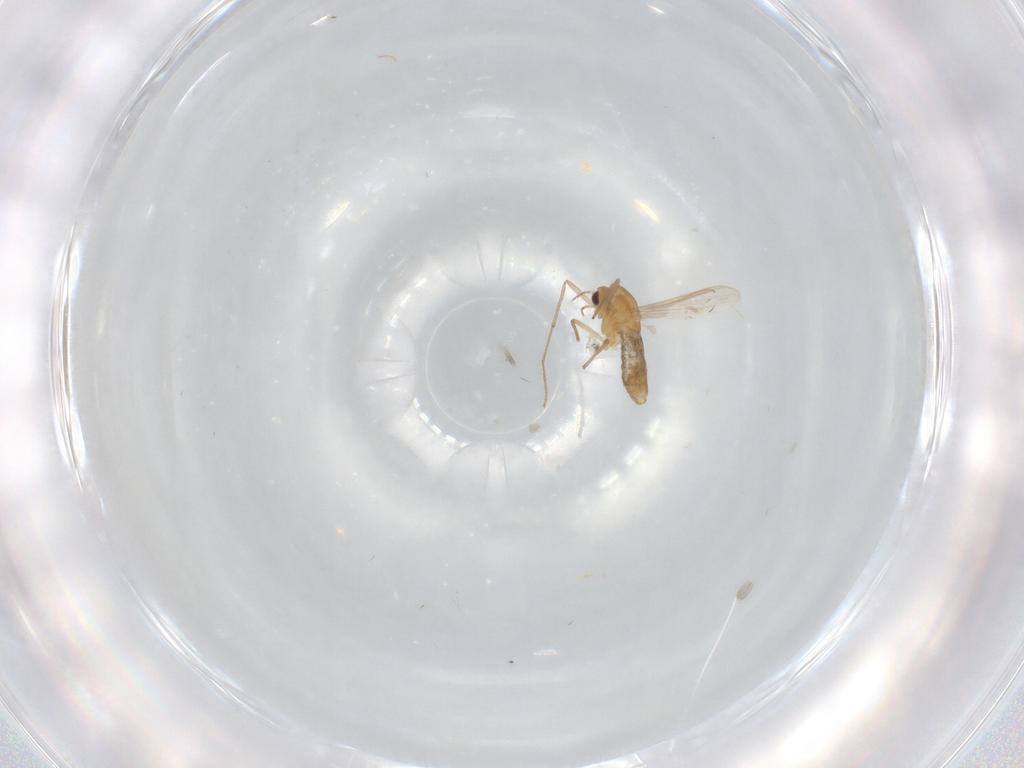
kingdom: Animalia
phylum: Arthropoda
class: Insecta
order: Diptera
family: Chironomidae
